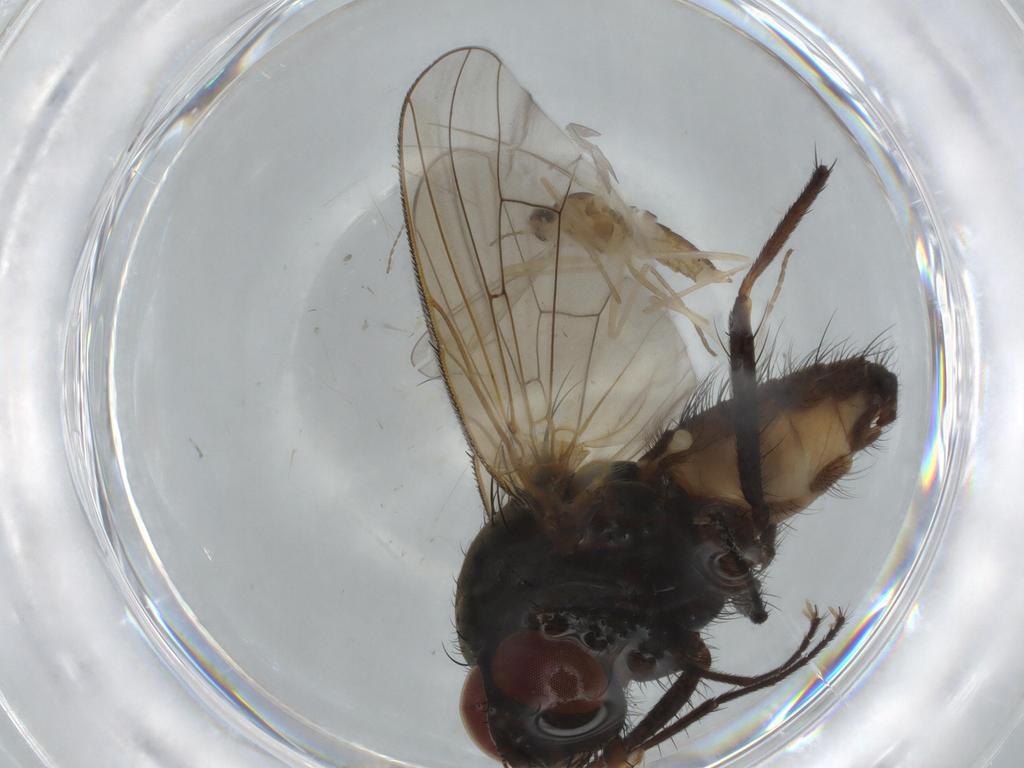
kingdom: Animalia
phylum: Arthropoda
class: Insecta
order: Diptera
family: Anthomyiidae
